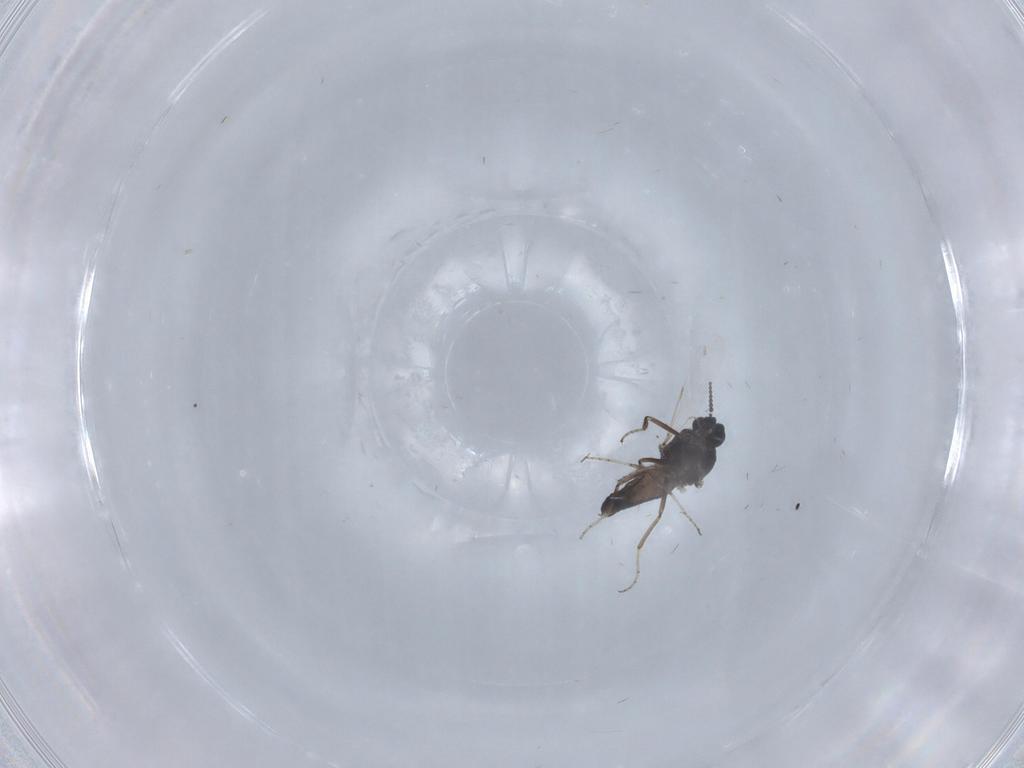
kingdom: Animalia
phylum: Arthropoda
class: Insecta
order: Diptera
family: Ceratopogonidae
